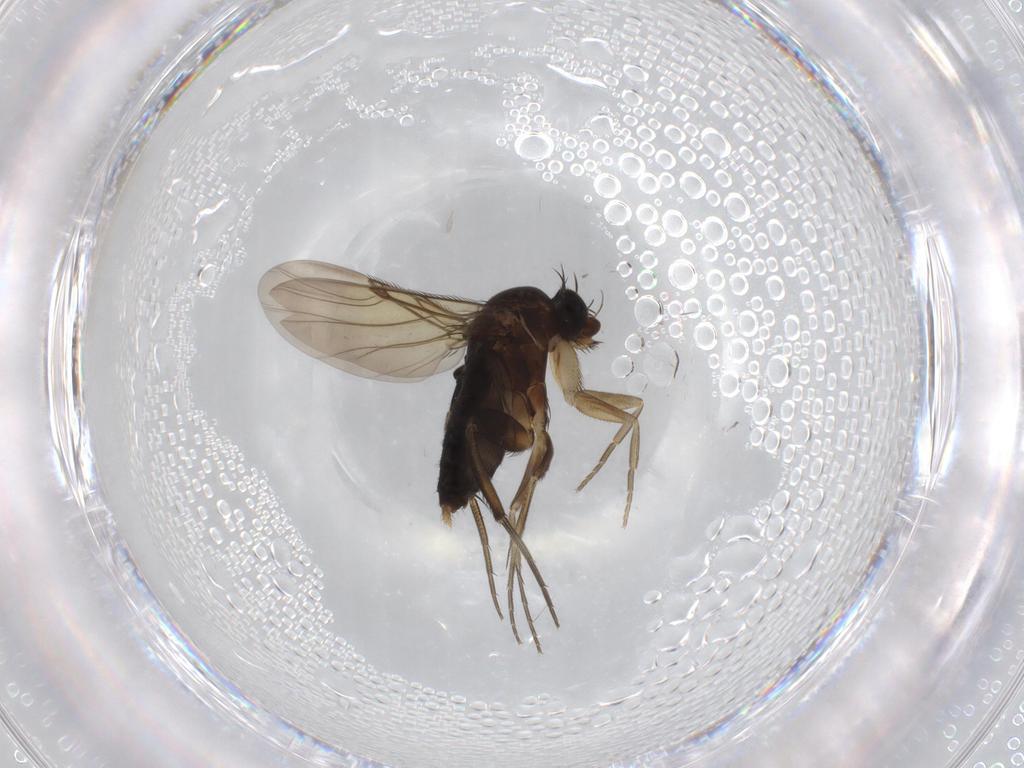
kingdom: Animalia
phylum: Arthropoda
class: Insecta
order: Diptera
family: Phoridae
